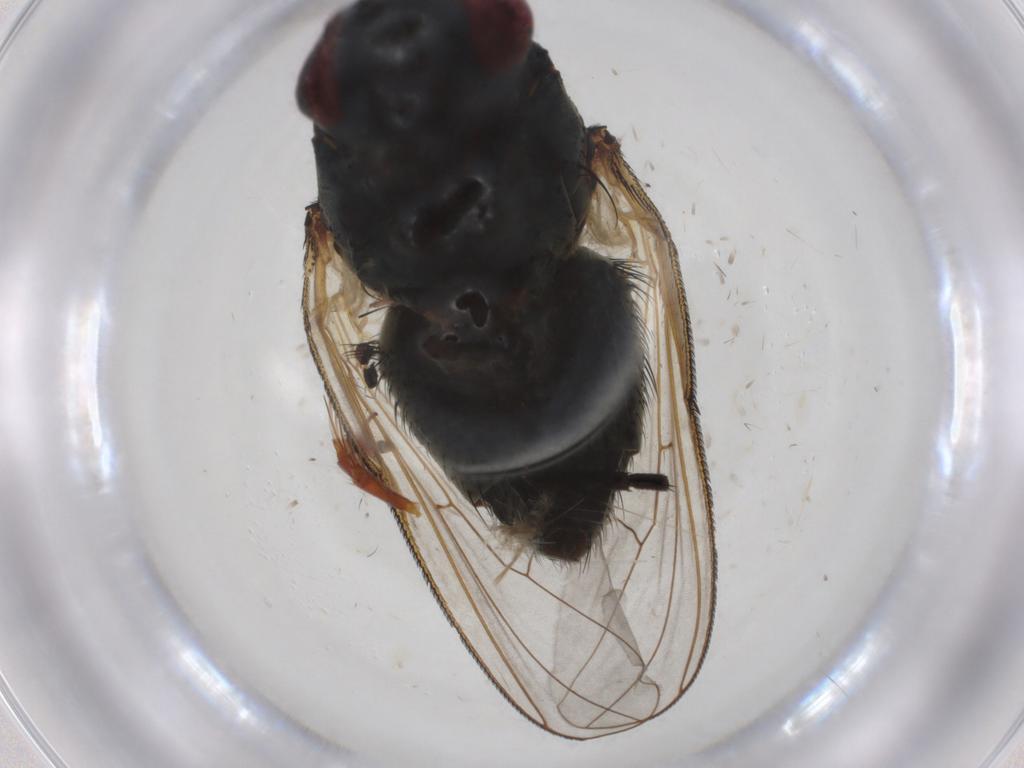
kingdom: Animalia
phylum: Arthropoda
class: Insecta
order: Diptera
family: Muscidae
